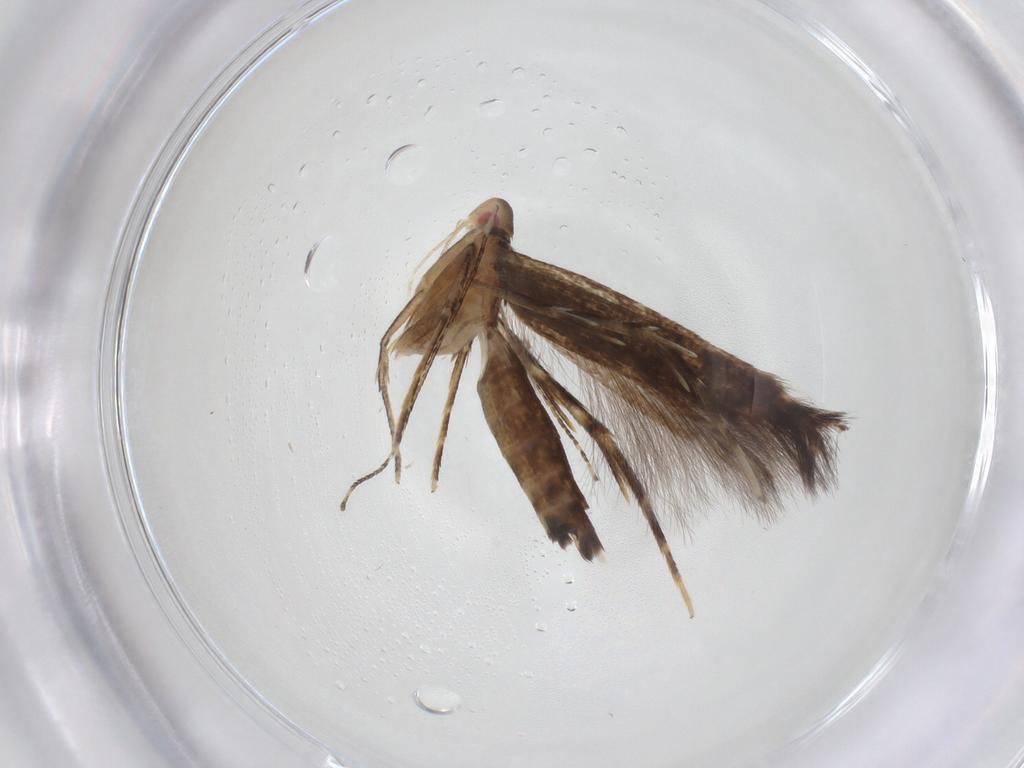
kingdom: Animalia
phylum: Arthropoda
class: Insecta
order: Lepidoptera
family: Cosmopterigidae
